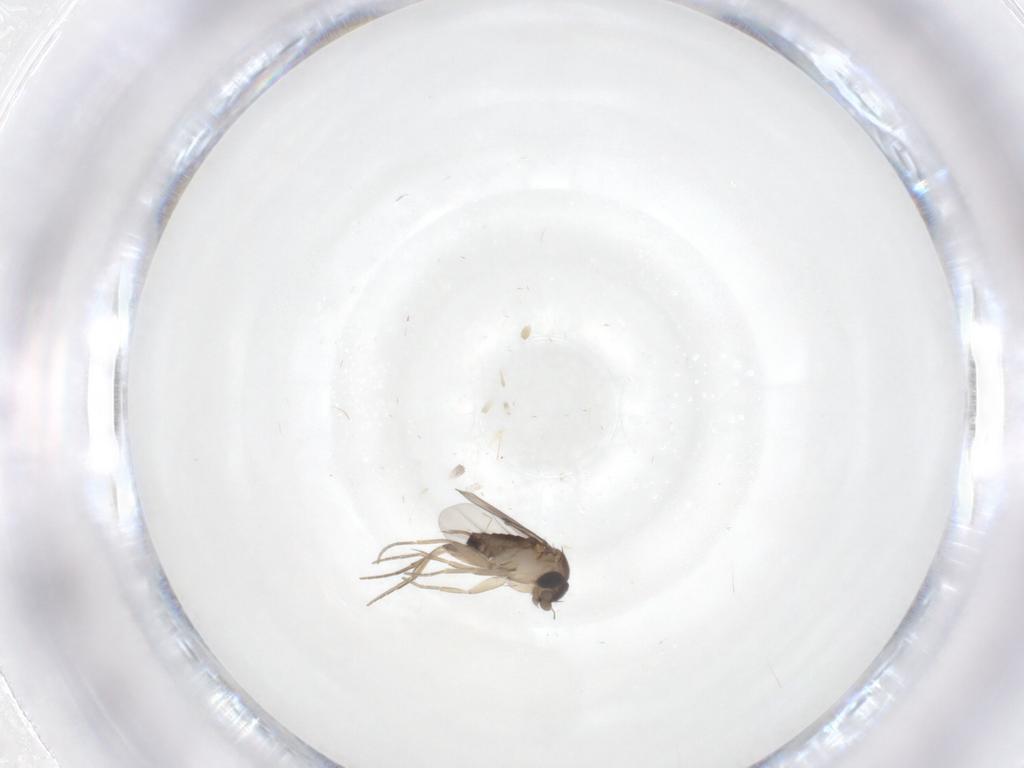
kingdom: Animalia
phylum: Arthropoda
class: Insecta
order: Diptera
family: Phoridae
